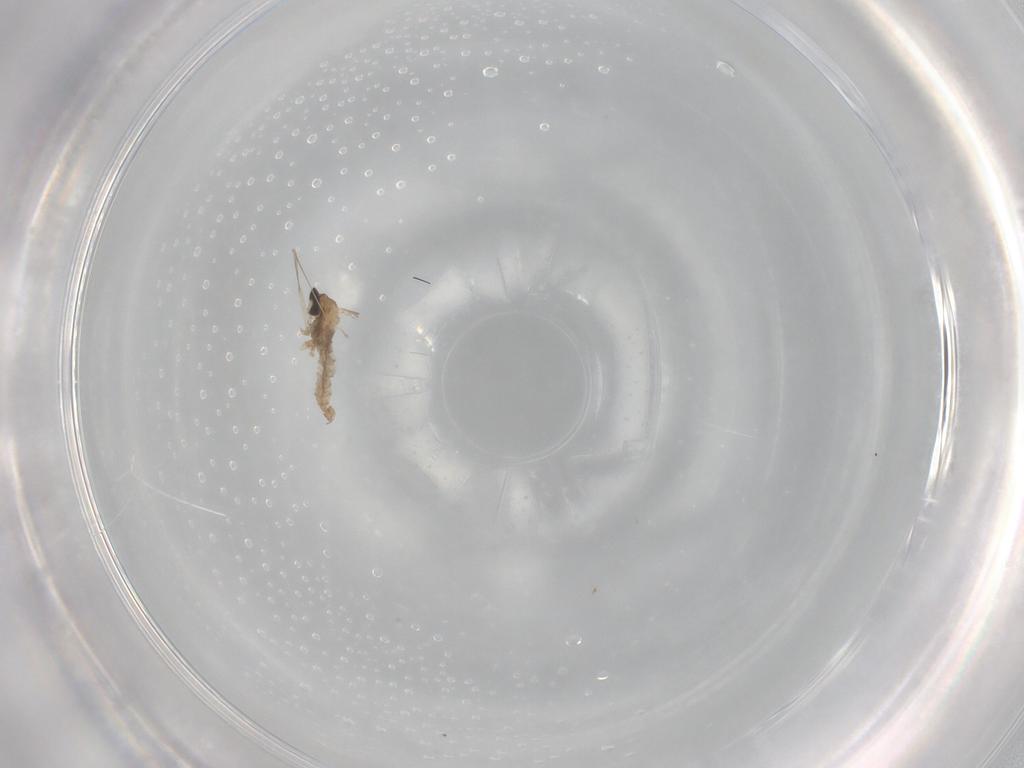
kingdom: Animalia
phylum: Arthropoda
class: Insecta
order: Diptera
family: Cecidomyiidae
